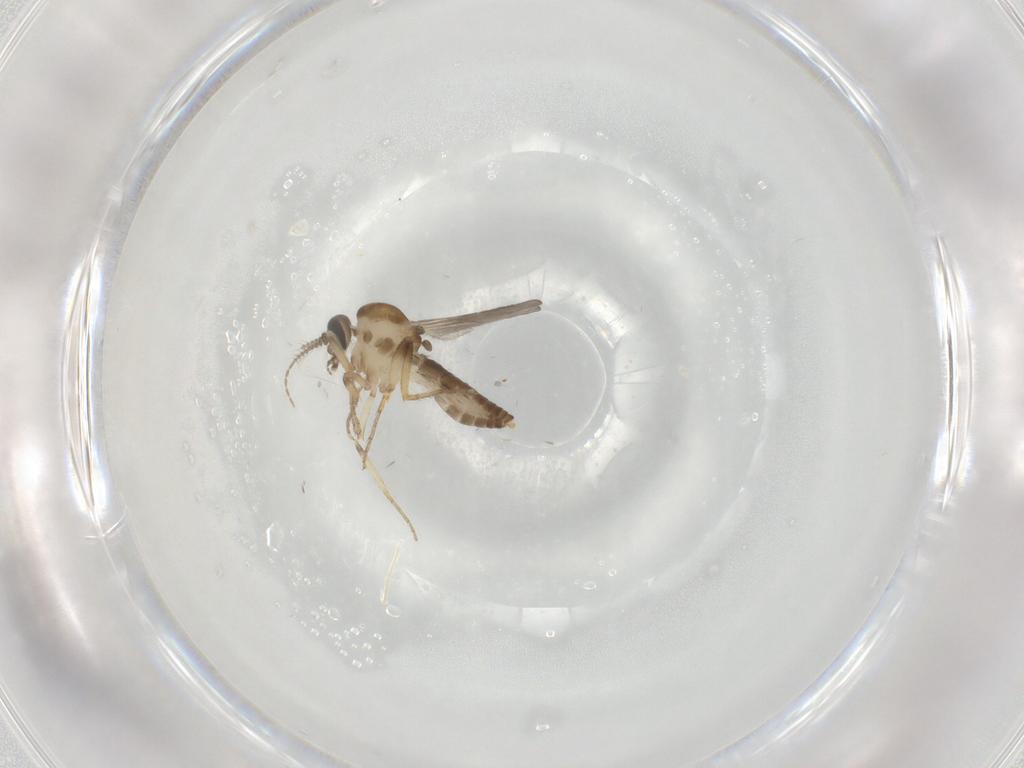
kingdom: Animalia
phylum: Arthropoda
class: Insecta
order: Diptera
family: Ceratopogonidae
